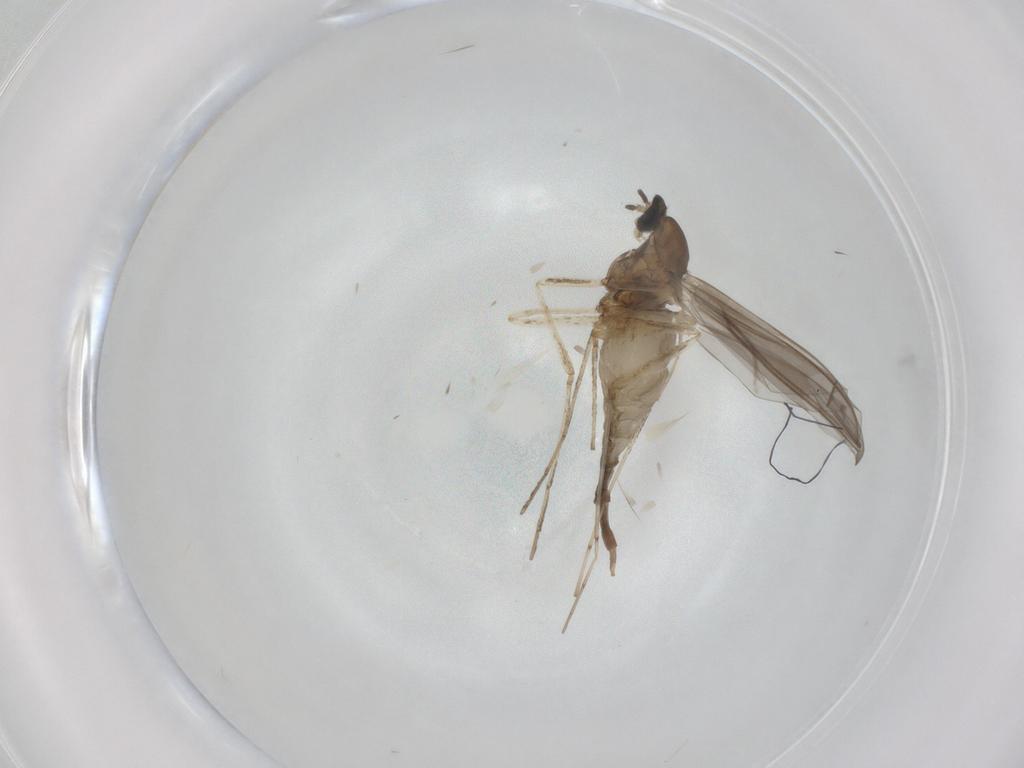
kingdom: Animalia
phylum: Arthropoda
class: Insecta
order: Diptera
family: Cecidomyiidae
